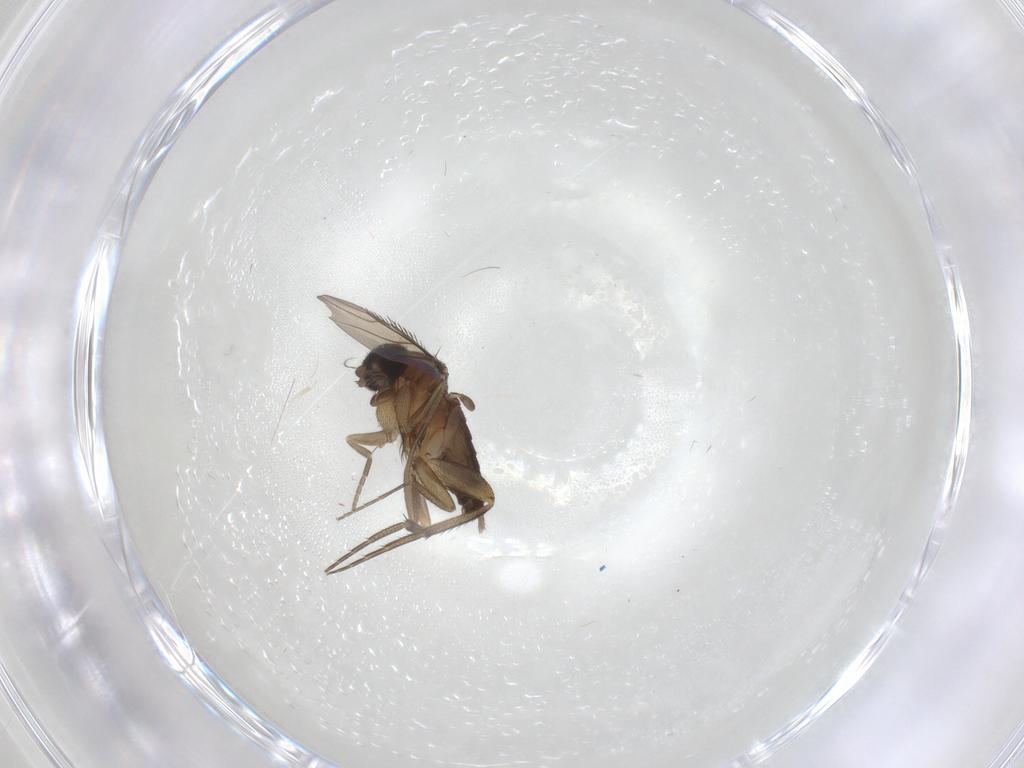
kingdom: Animalia
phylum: Arthropoda
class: Insecta
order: Diptera
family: Phoridae
